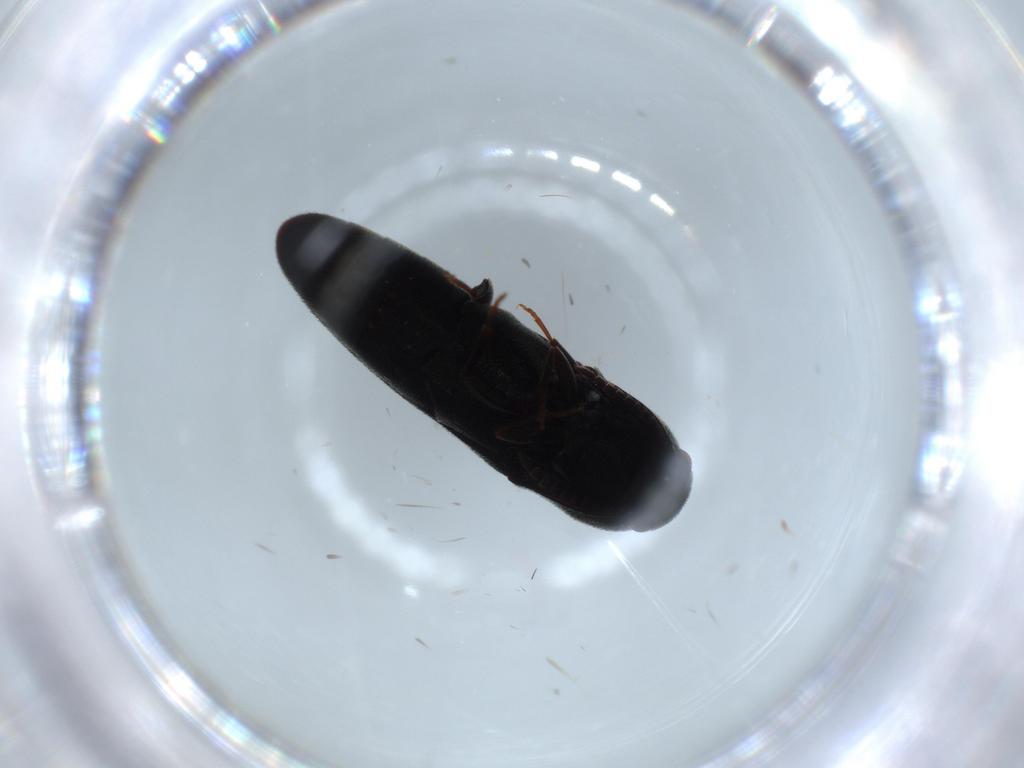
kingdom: Animalia
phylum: Arthropoda
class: Insecta
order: Coleoptera
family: Eucnemidae
